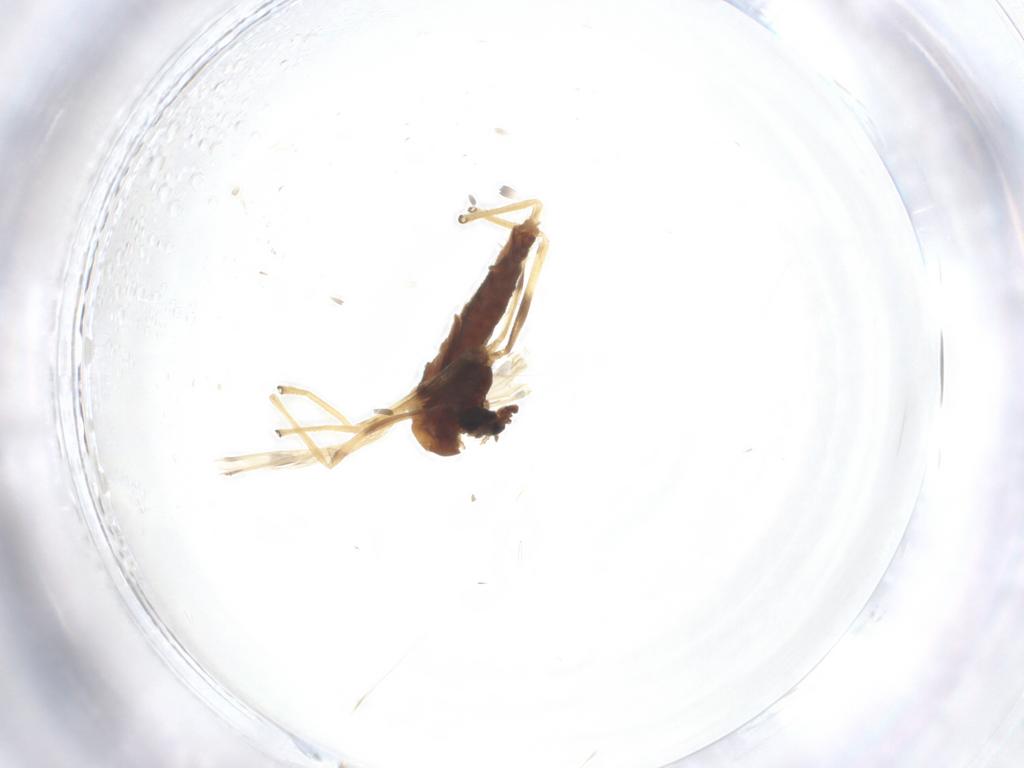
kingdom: Animalia
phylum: Arthropoda
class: Insecta
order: Diptera
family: Chironomidae
